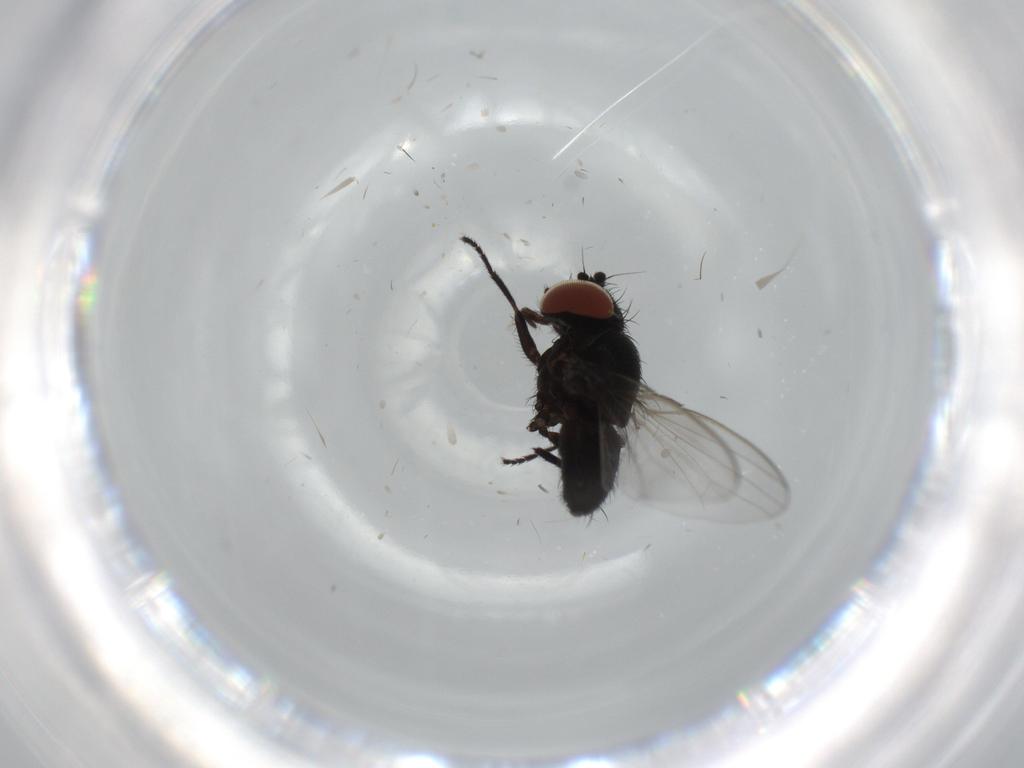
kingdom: Animalia
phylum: Arthropoda
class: Insecta
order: Diptera
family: Milichiidae
